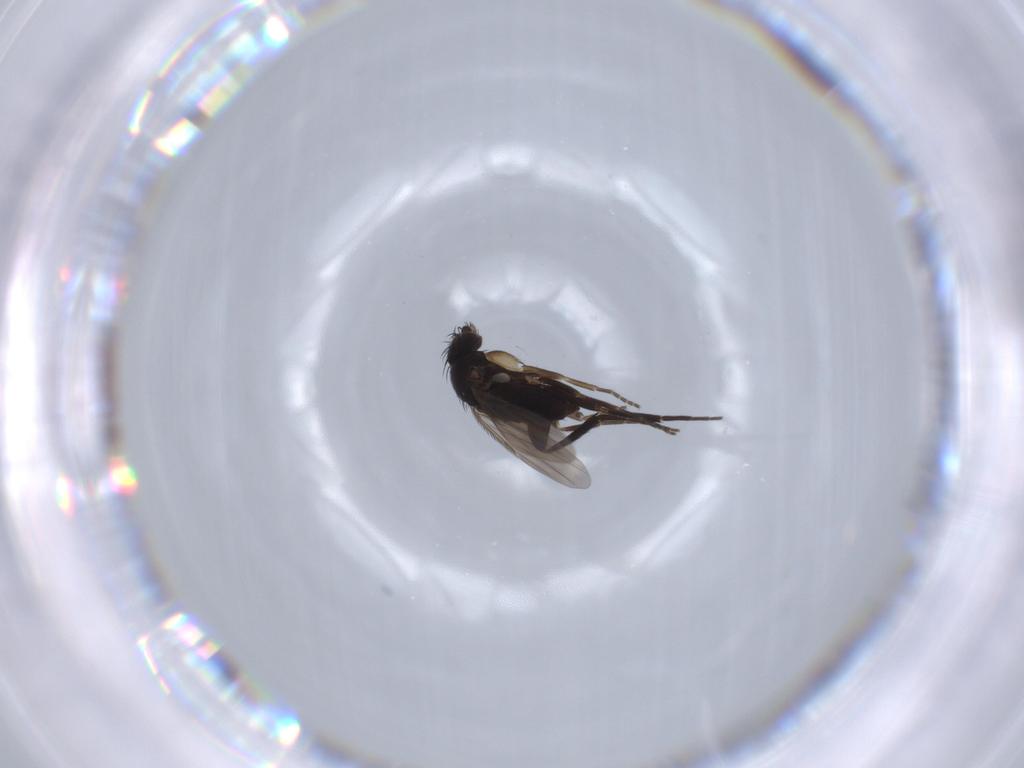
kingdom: Animalia
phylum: Arthropoda
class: Insecta
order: Diptera
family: Phoridae
